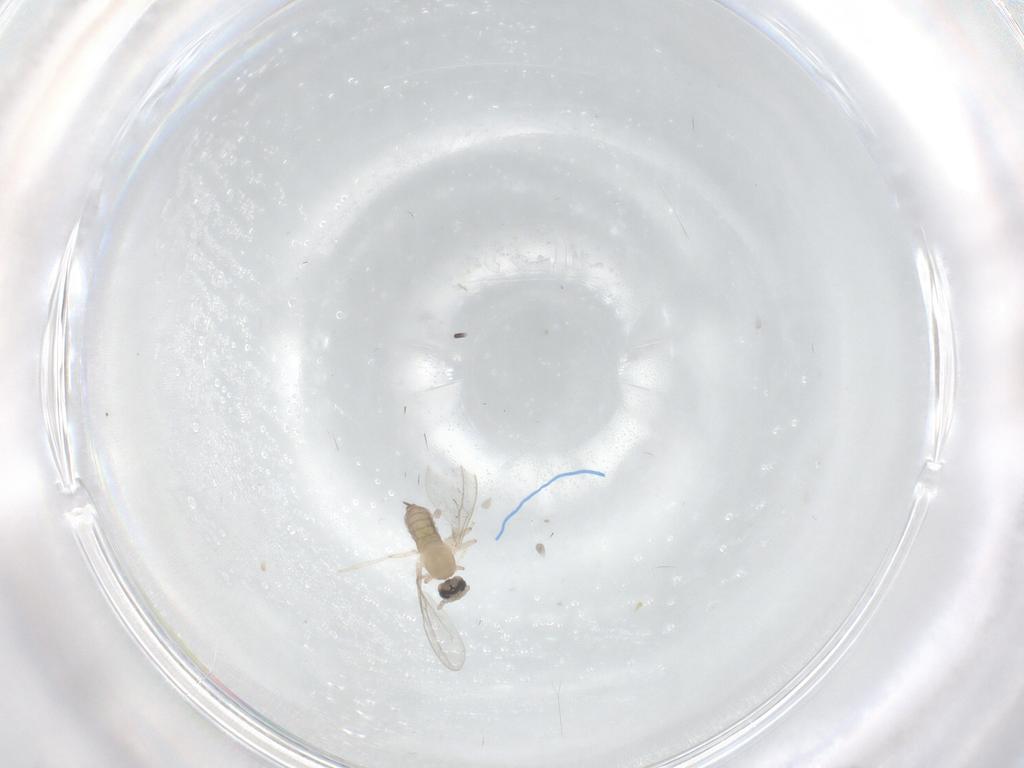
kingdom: Animalia
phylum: Arthropoda
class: Insecta
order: Diptera
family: Cecidomyiidae
